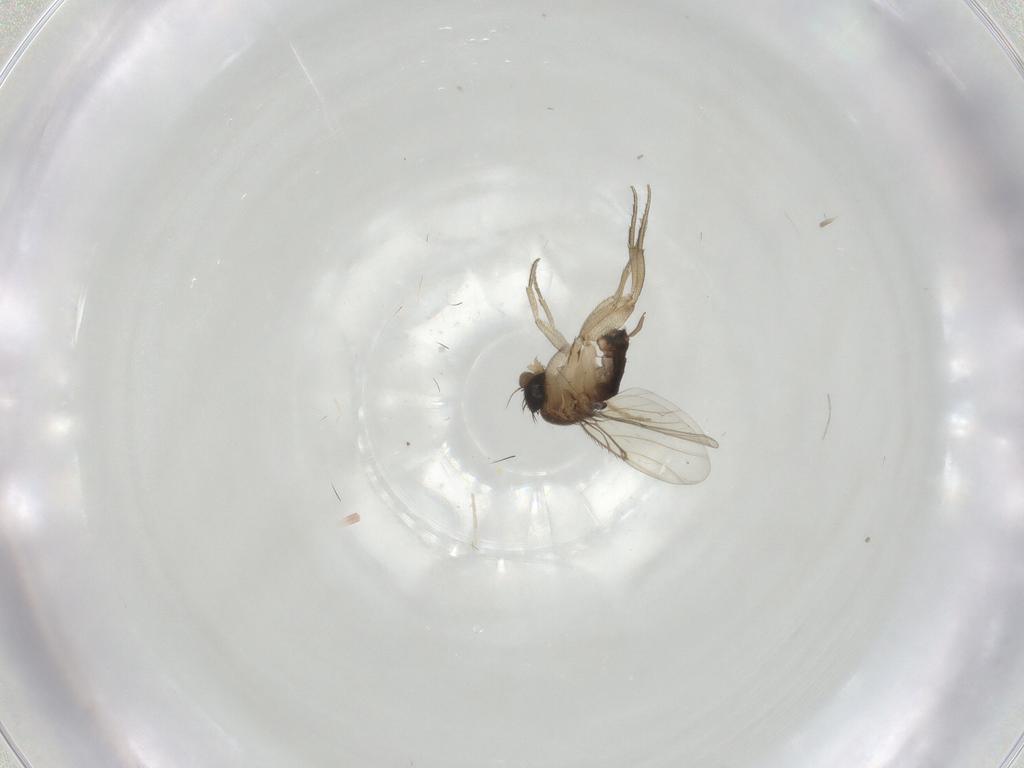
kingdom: Animalia
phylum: Arthropoda
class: Insecta
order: Diptera
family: Chironomidae
